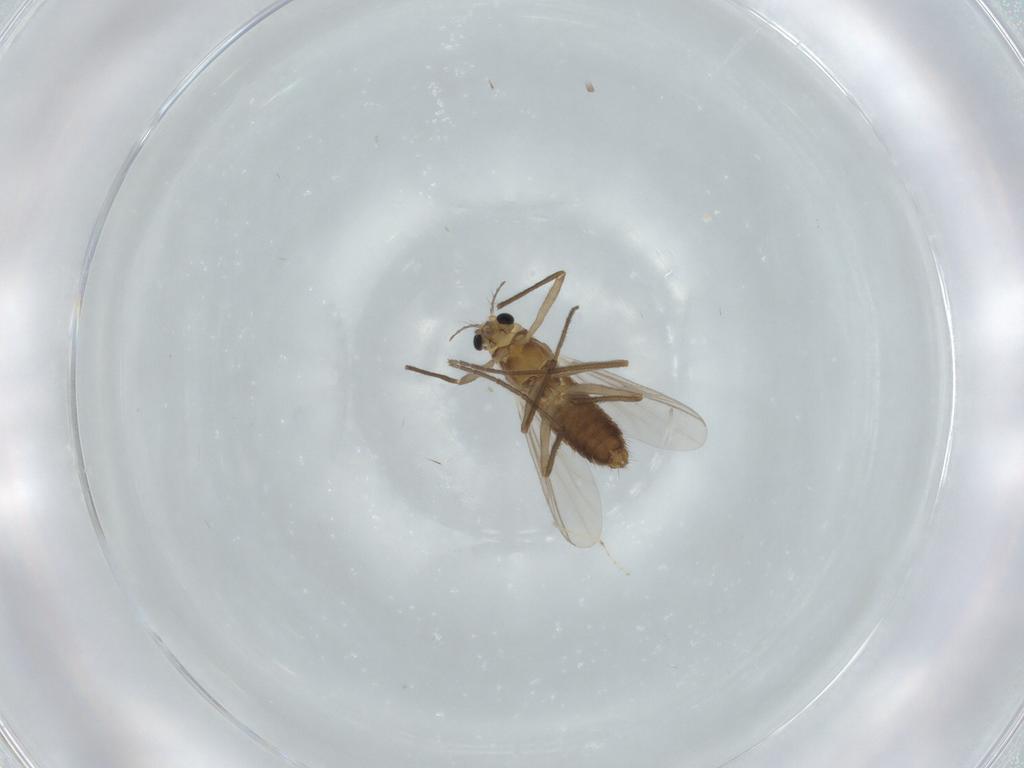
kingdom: Animalia
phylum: Arthropoda
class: Insecta
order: Diptera
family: Chironomidae
